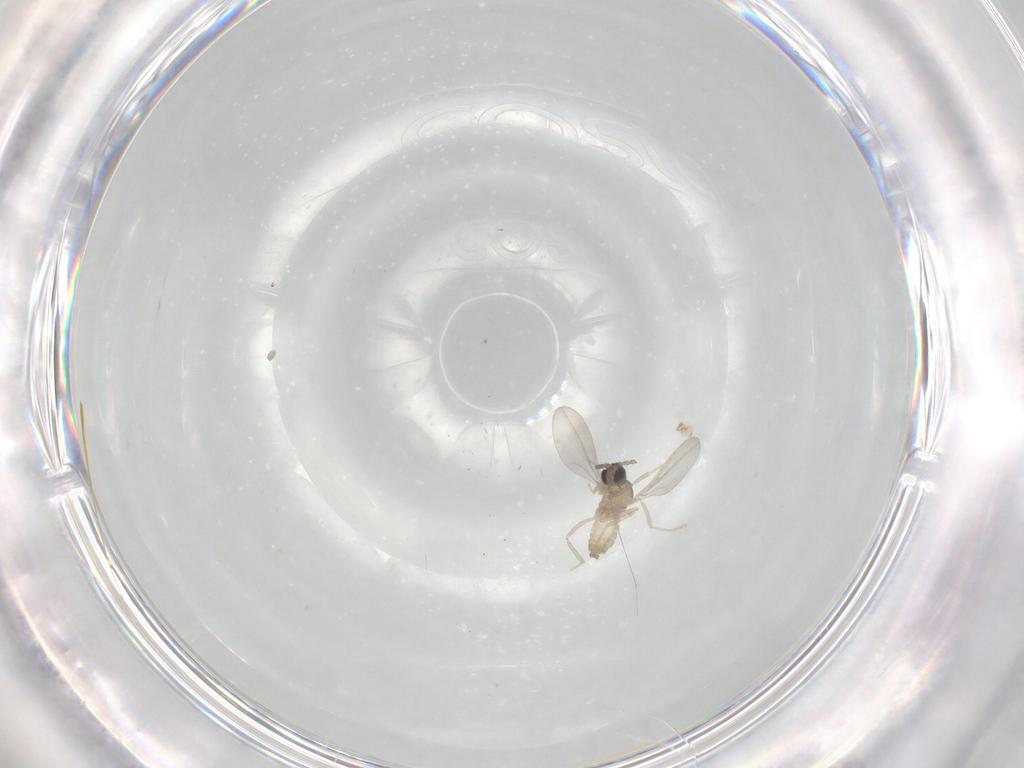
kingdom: Animalia
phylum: Arthropoda
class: Insecta
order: Diptera
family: Cecidomyiidae
